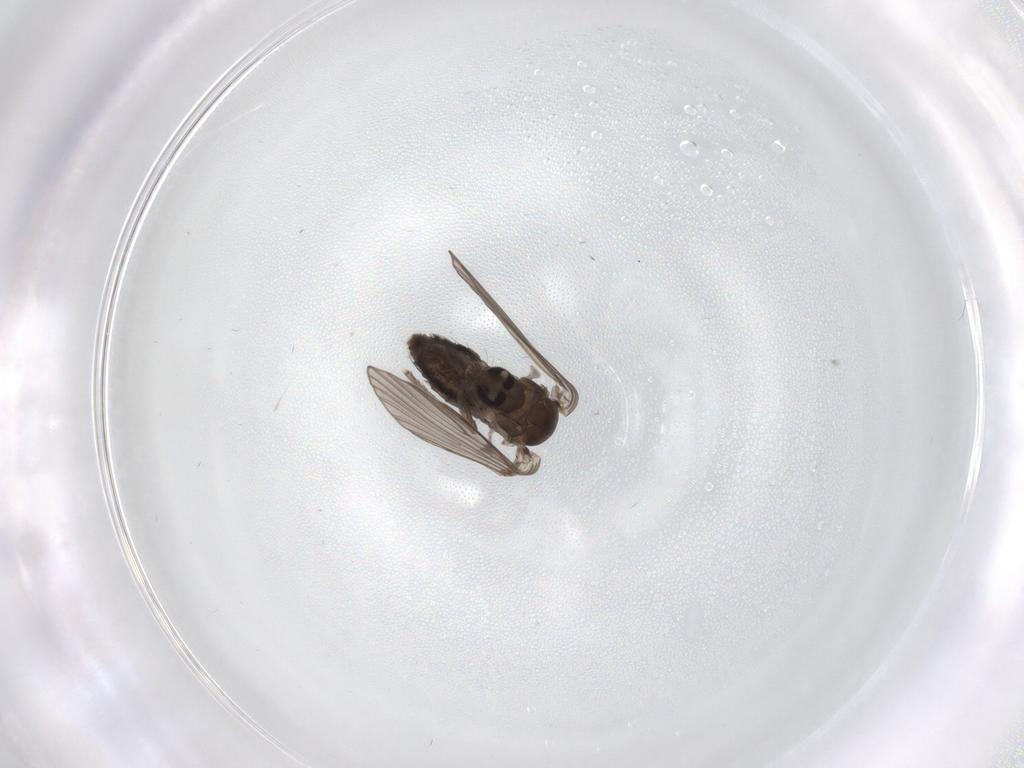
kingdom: Animalia
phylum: Arthropoda
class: Insecta
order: Diptera
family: Psychodidae
